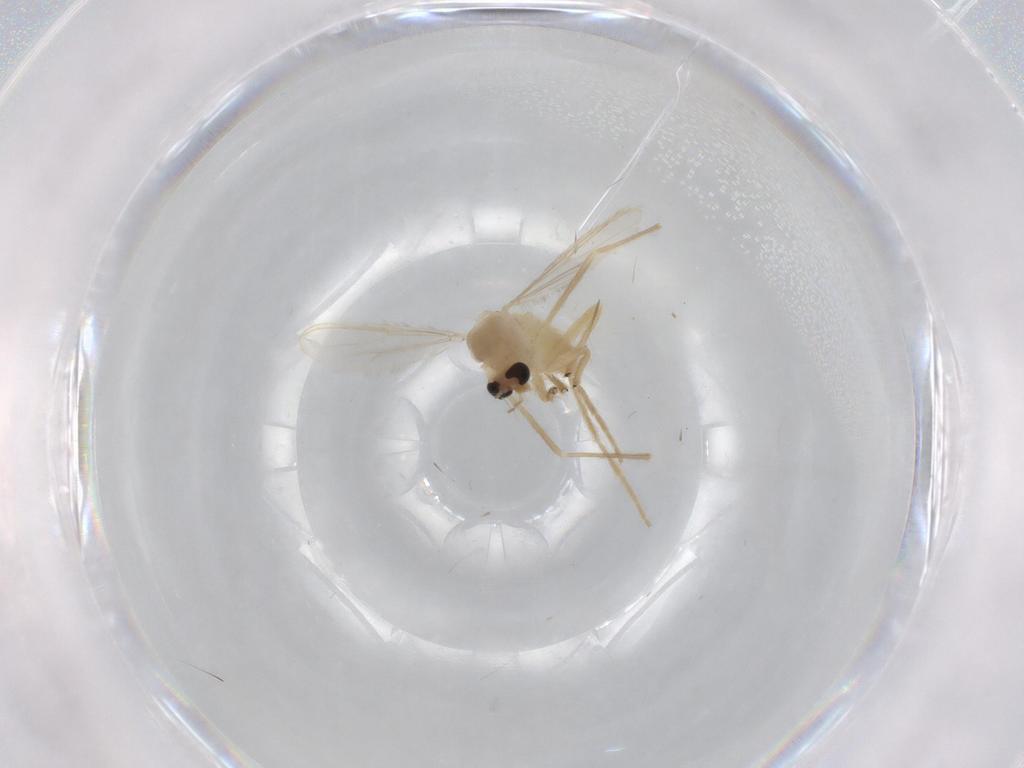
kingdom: Animalia
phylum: Arthropoda
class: Insecta
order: Diptera
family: Chironomidae
